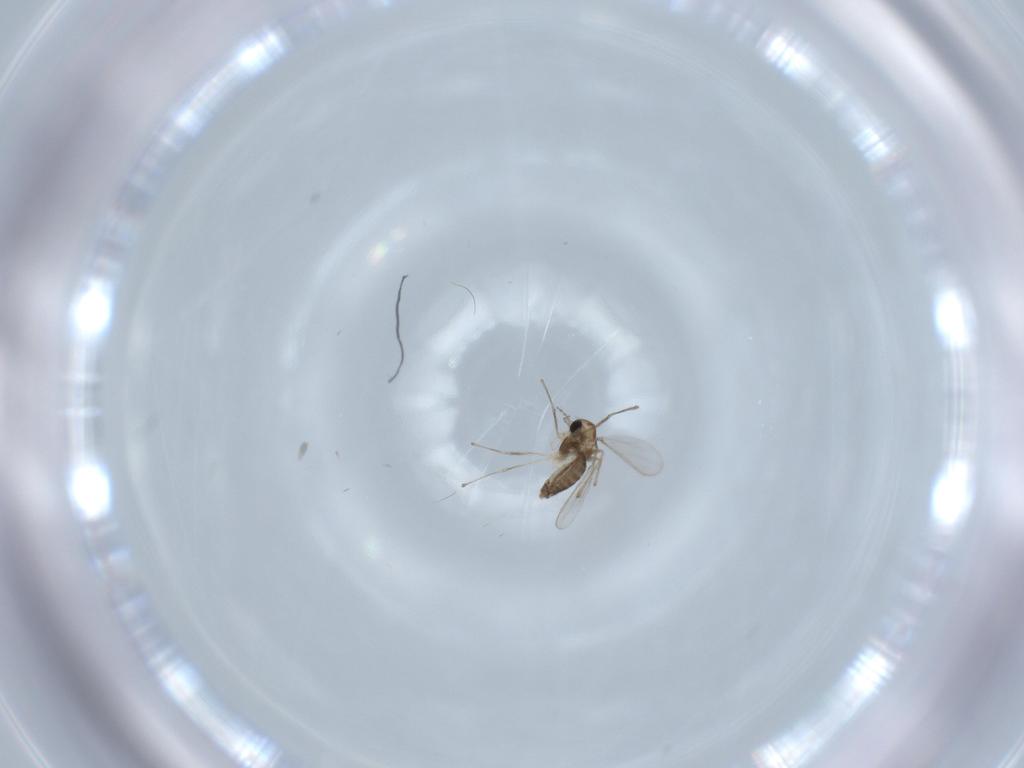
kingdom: Animalia
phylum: Arthropoda
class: Insecta
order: Diptera
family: Chironomidae
